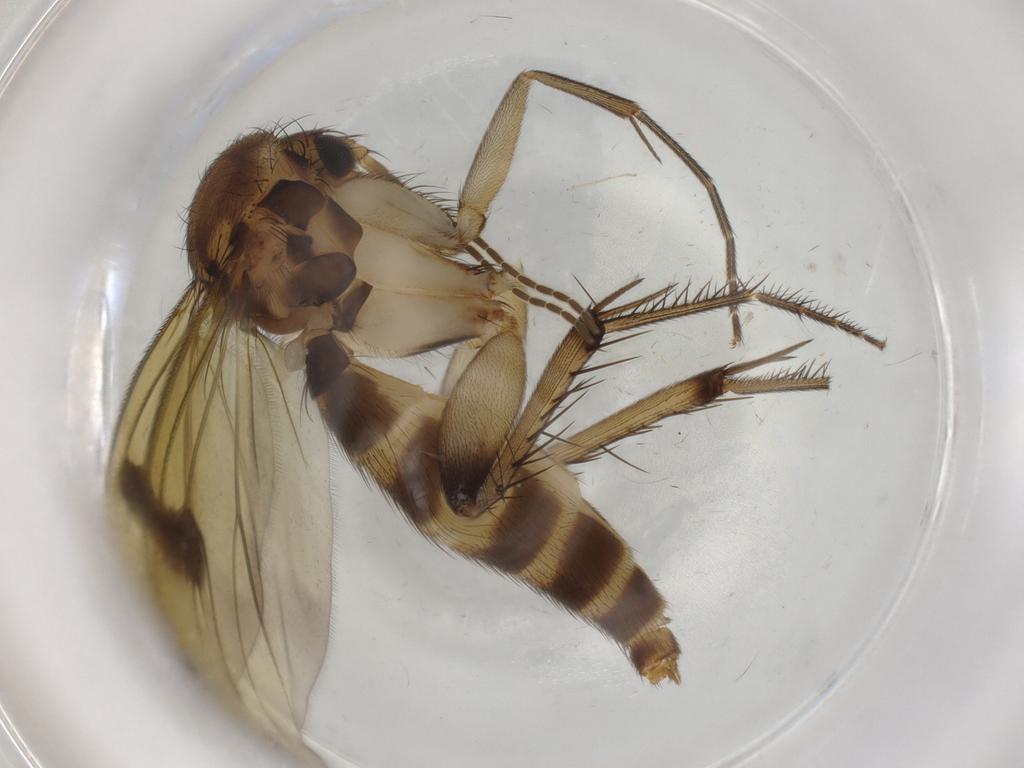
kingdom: Animalia
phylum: Arthropoda
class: Insecta
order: Diptera
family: Mycetophilidae
